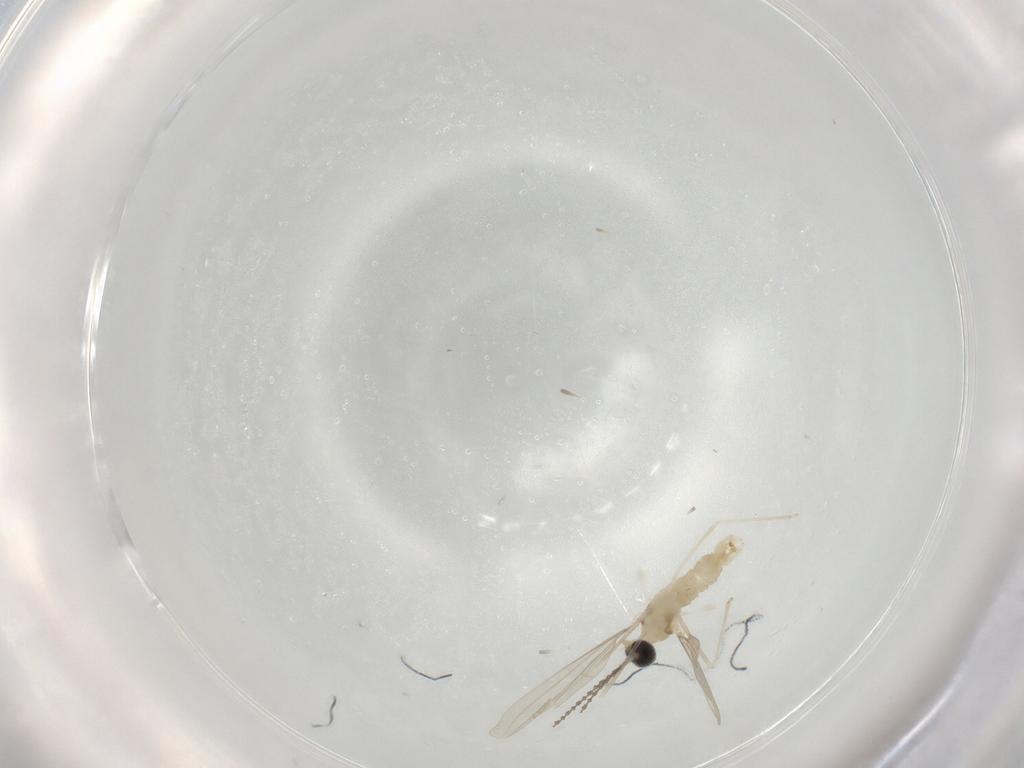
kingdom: Animalia
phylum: Arthropoda
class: Insecta
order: Diptera
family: Cecidomyiidae
